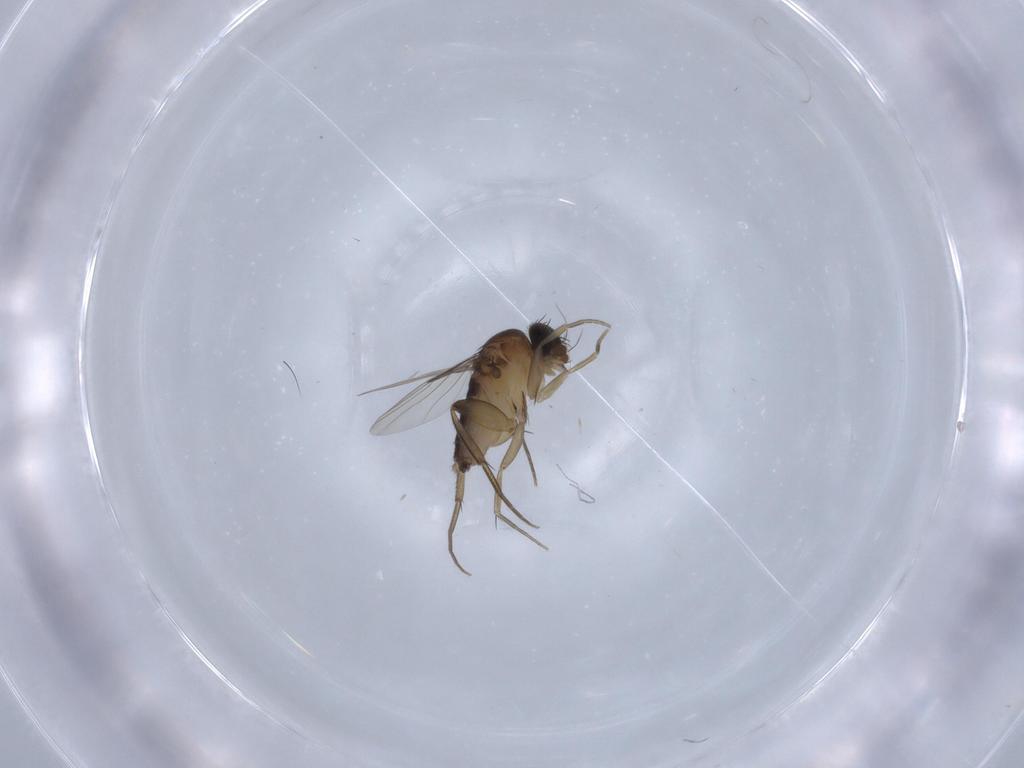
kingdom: Animalia
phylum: Arthropoda
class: Insecta
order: Diptera
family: Phoridae
